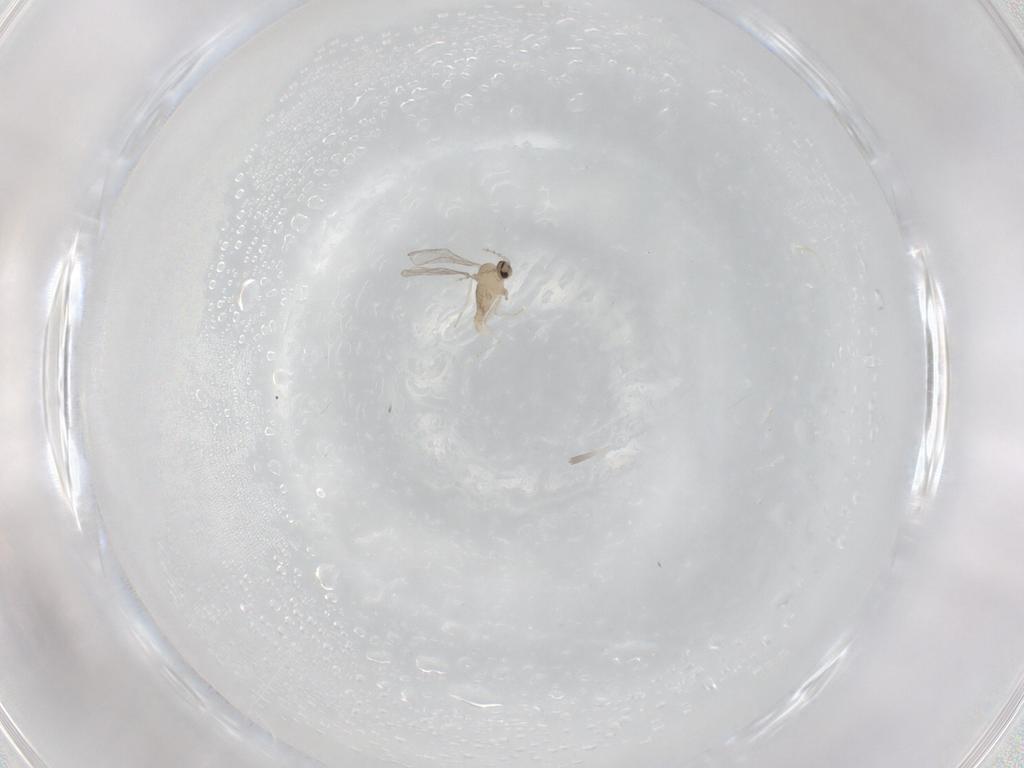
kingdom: Animalia
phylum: Arthropoda
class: Insecta
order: Diptera
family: Cecidomyiidae
